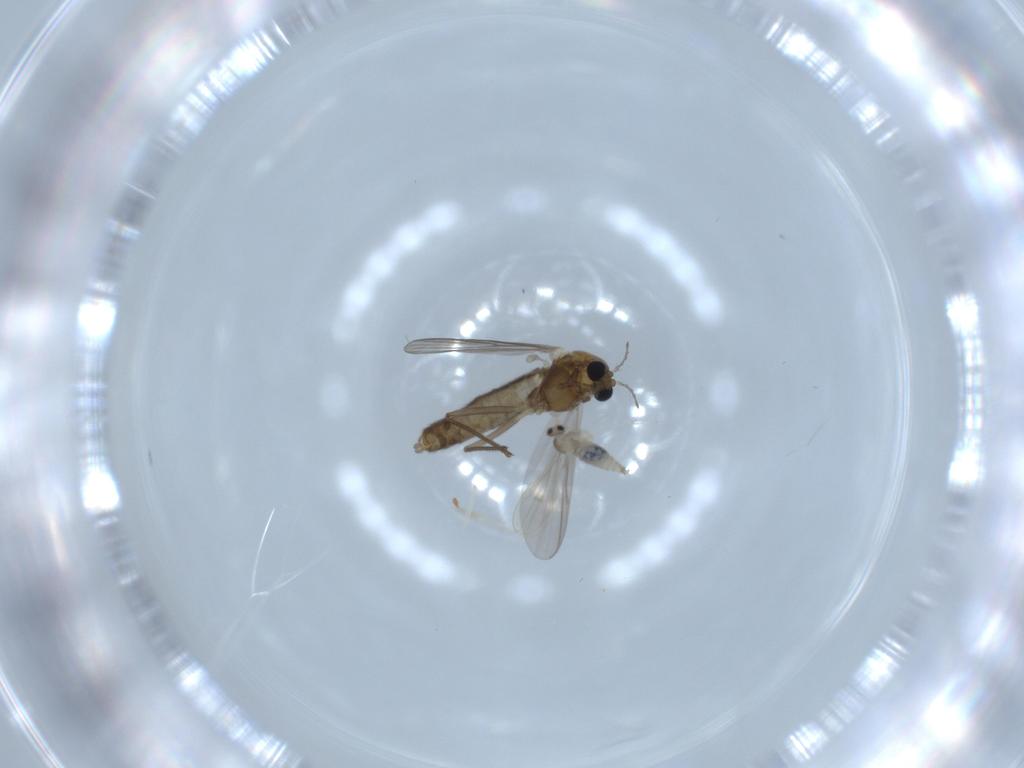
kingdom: Animalia
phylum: Arthropoda
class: Insecta
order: Diptera
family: Chironomidae
